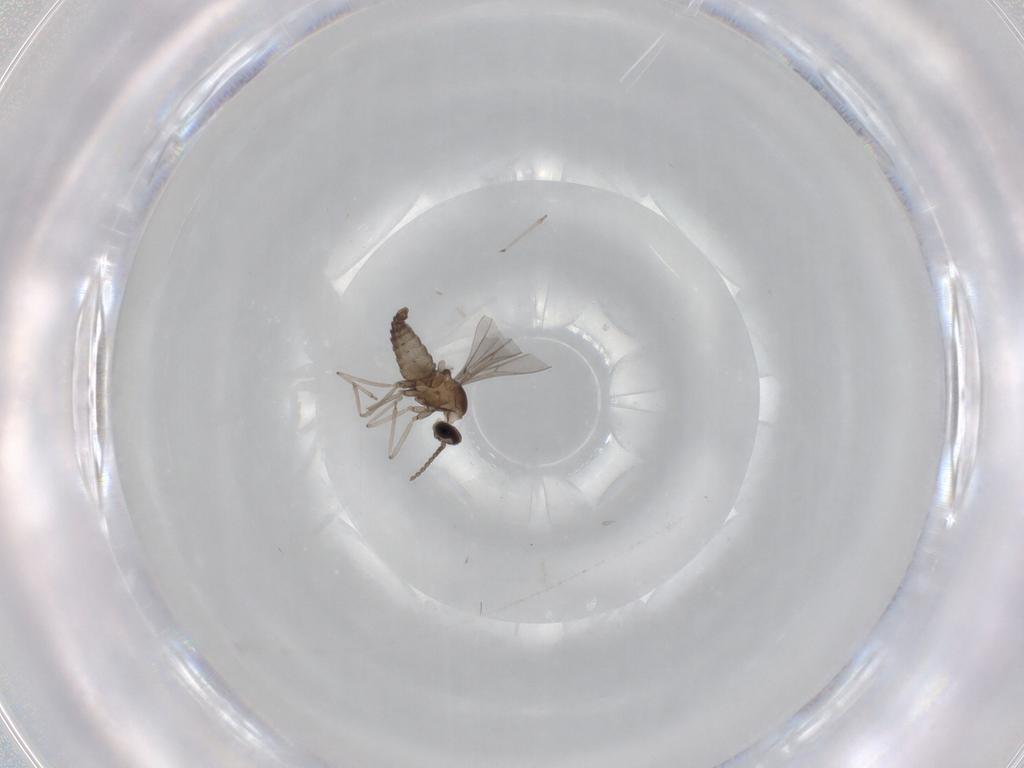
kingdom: Animalia
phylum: Arthropoda
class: Insecta
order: Diptera
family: Cecidomyiidae
